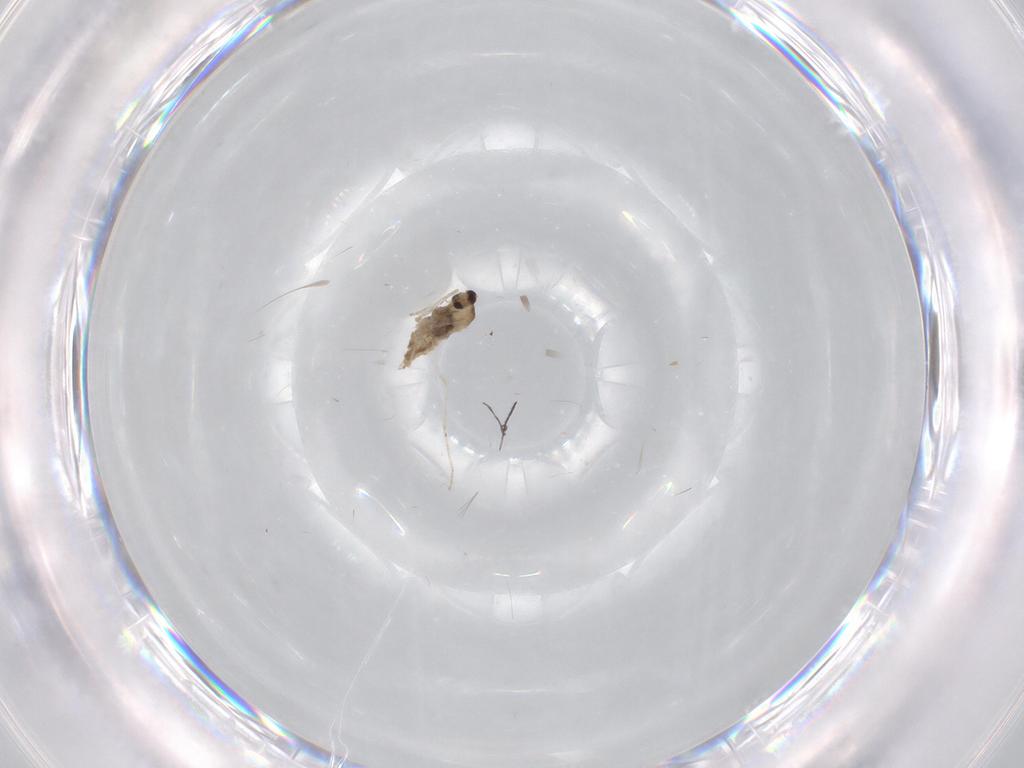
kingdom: Animalia
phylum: Arthropoda
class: Insecta
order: Diptera
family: Cecidomyiidae
